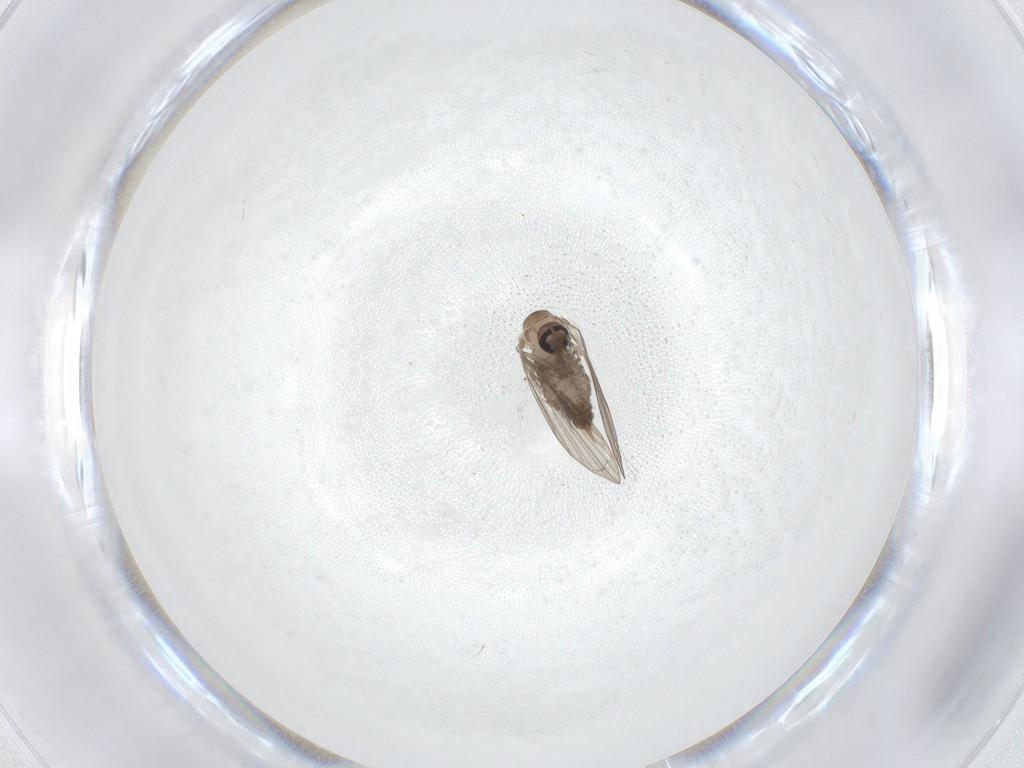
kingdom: Animalia
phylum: Arthropoda
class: Insecta
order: Diptera
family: Psychodidae
